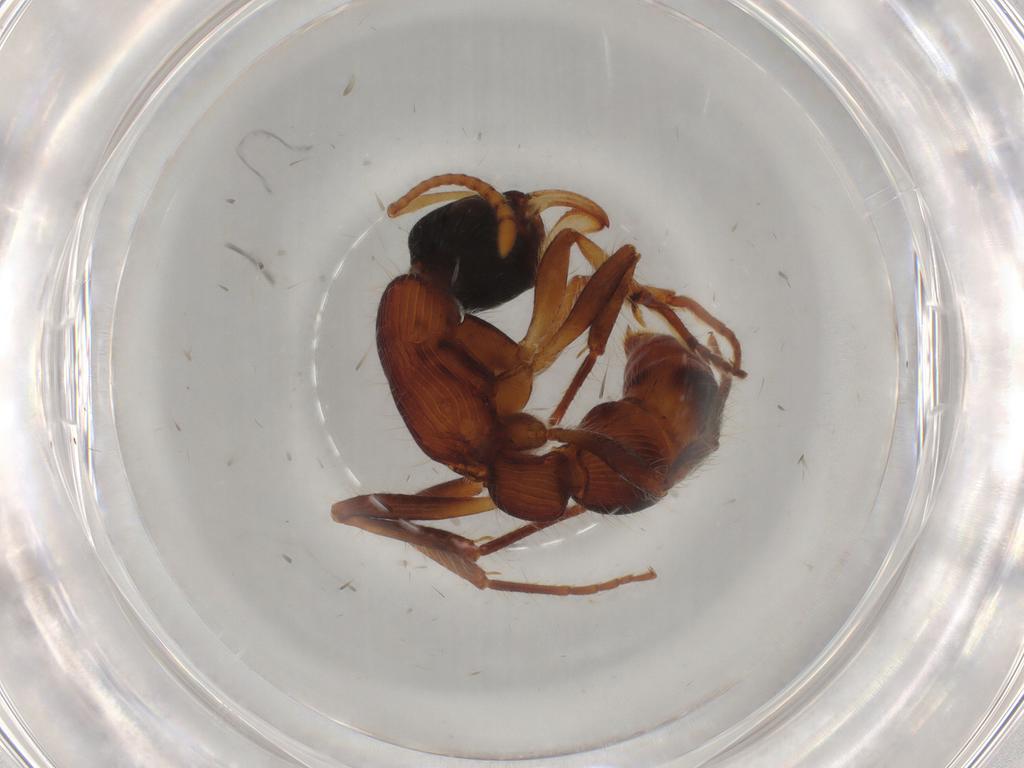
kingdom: Animalia
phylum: Arthropoda
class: Insecta
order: Hymenoptera
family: Formicidae
